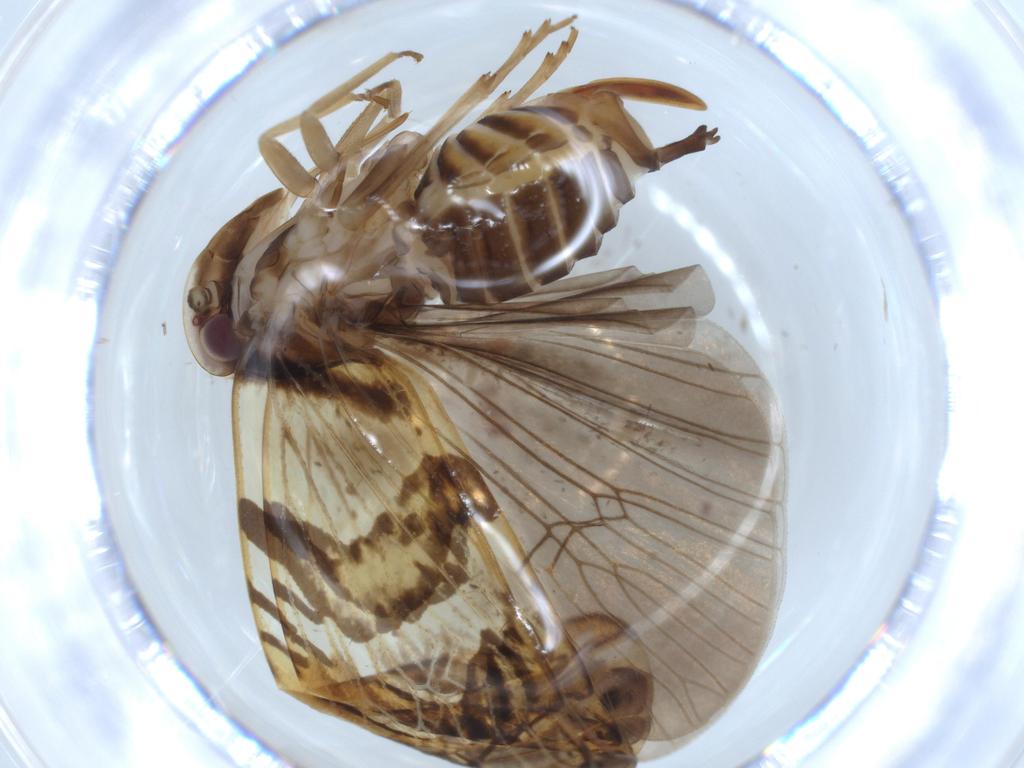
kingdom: Animalia
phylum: Arthropoda
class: Insecta
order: Hemiptera
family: Cixiidae
